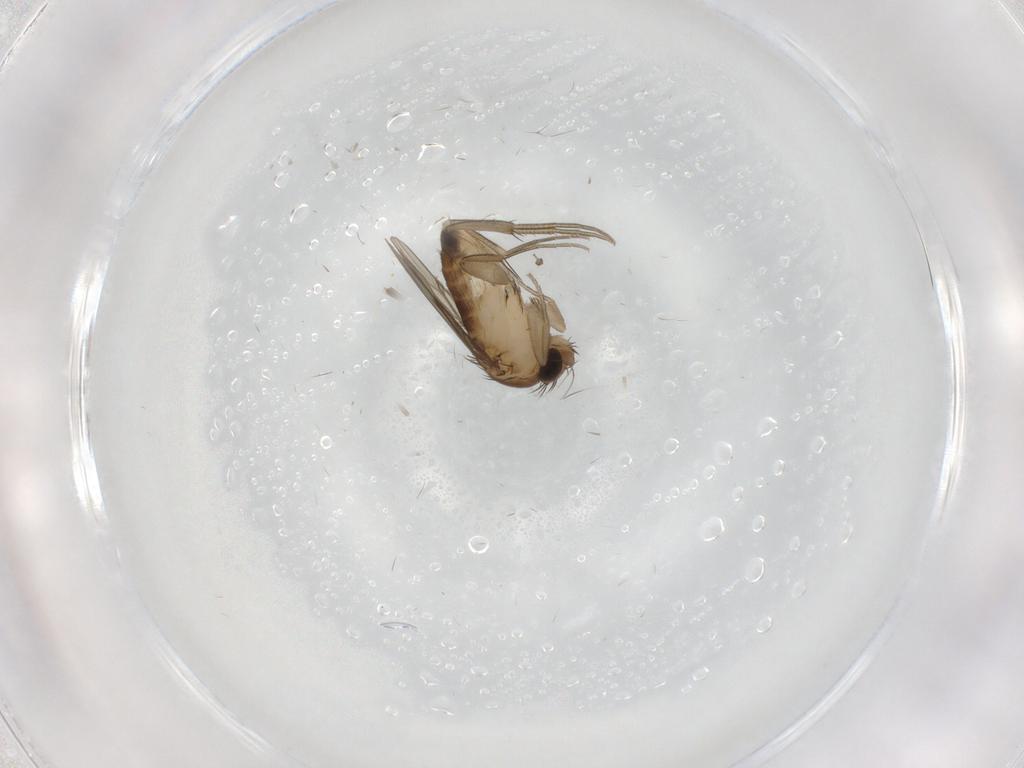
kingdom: Animalia
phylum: Arthropoda
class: Insecta
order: Diptera
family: Psychodidae
